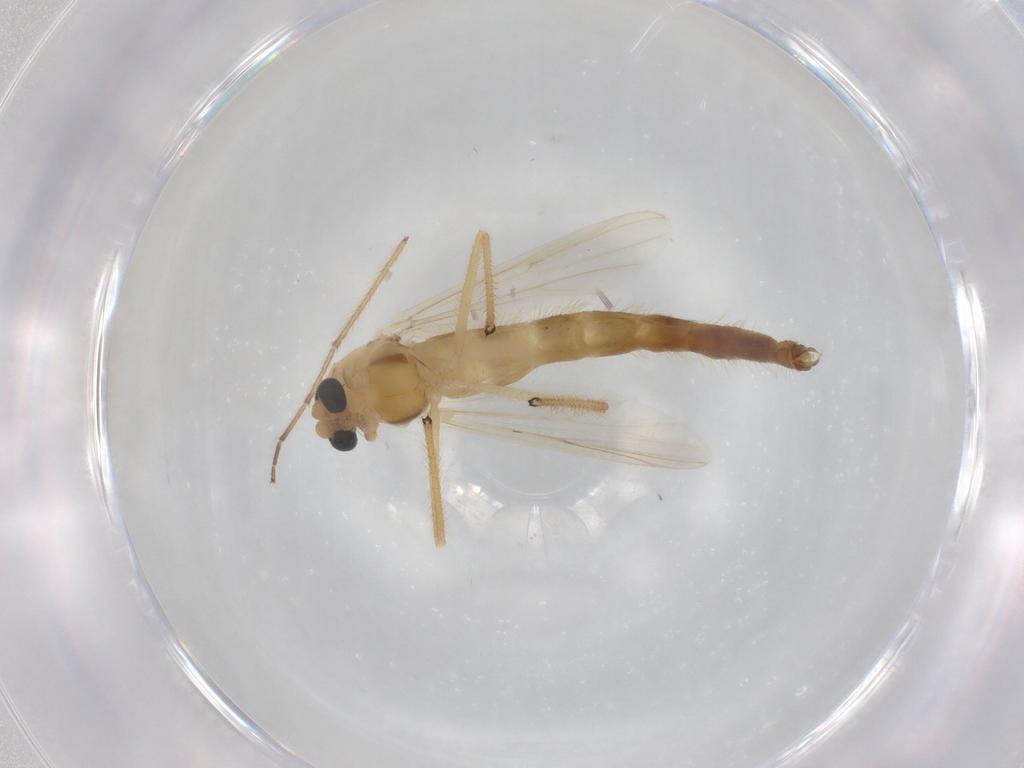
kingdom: Animalia
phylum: Arthropoda
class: Insecta
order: Diptera
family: Chironomidae
